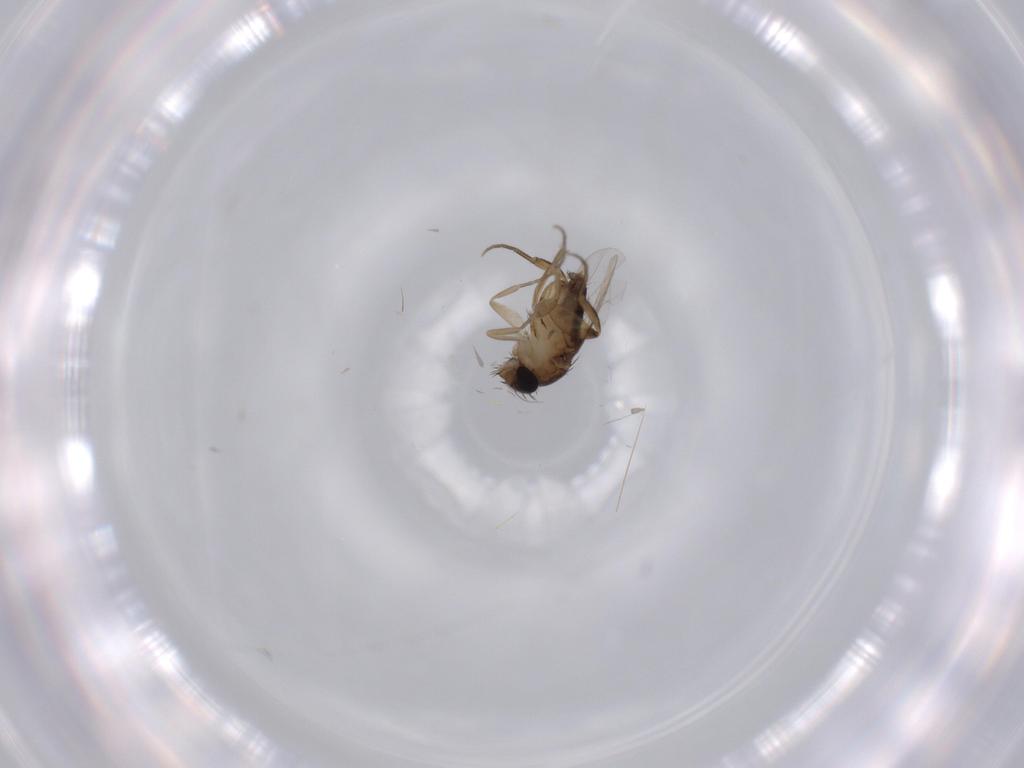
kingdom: Animalia
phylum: Arthropoda
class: Insecta
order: Diptera
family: Phoridae
